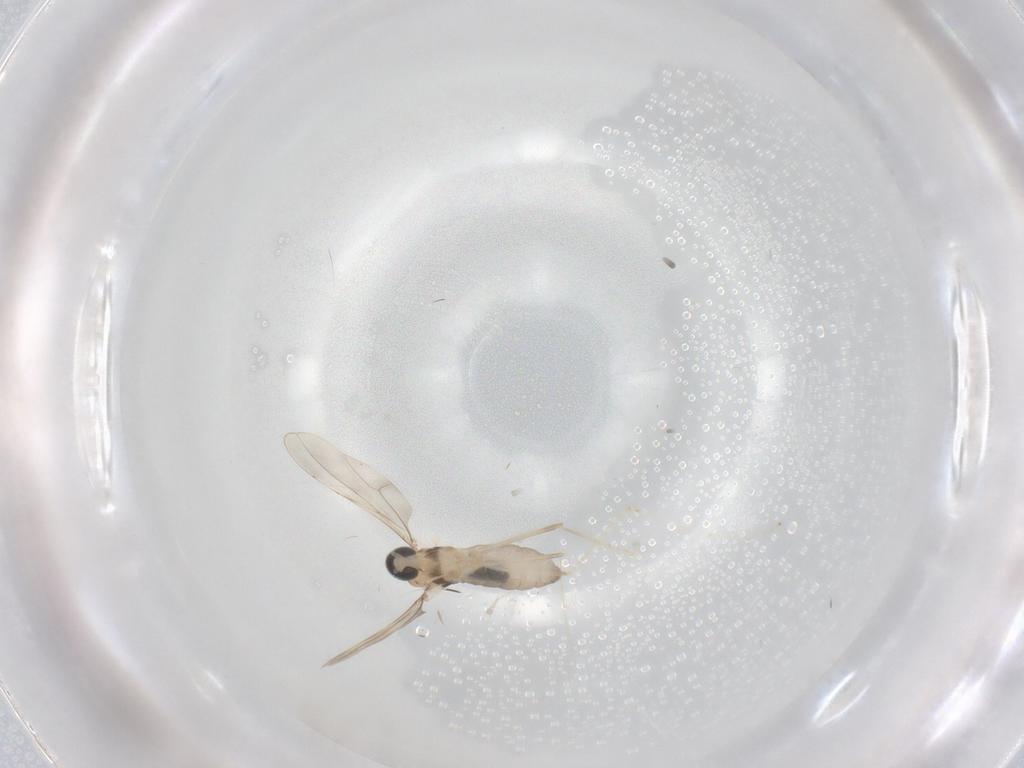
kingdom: Animalia
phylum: Arthropoda
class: Insecta
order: Diptera
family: Cecidomyiidae
